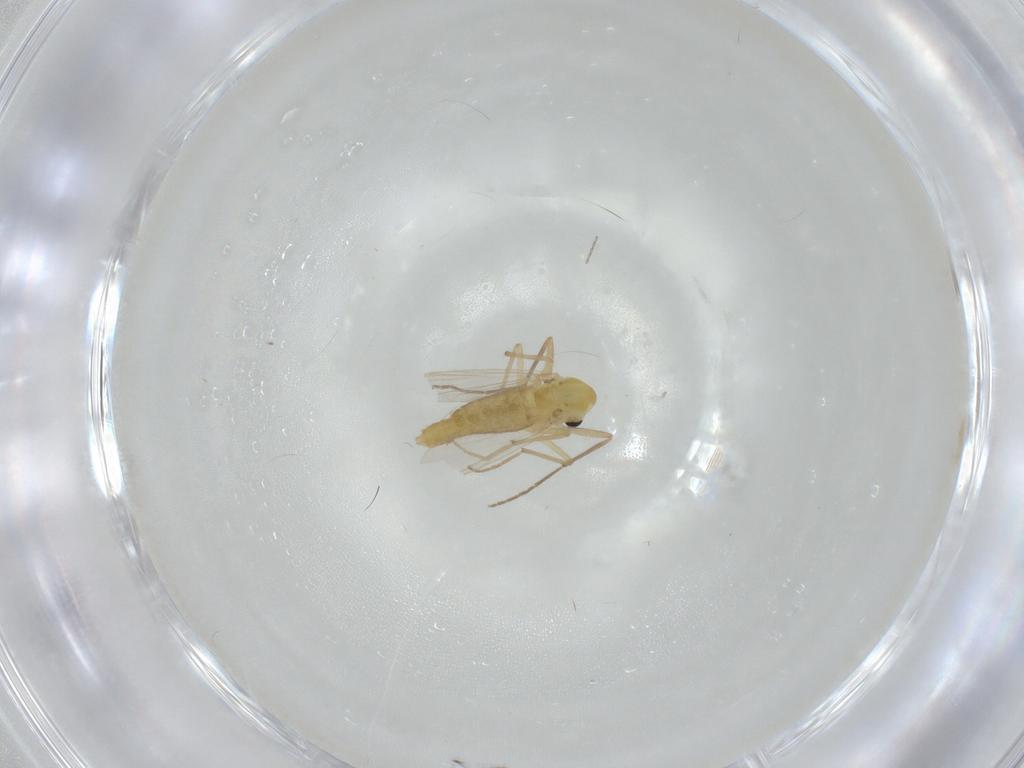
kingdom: Animalia
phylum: Arthropoda
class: Insecta
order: Diptera
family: Chironomidae
